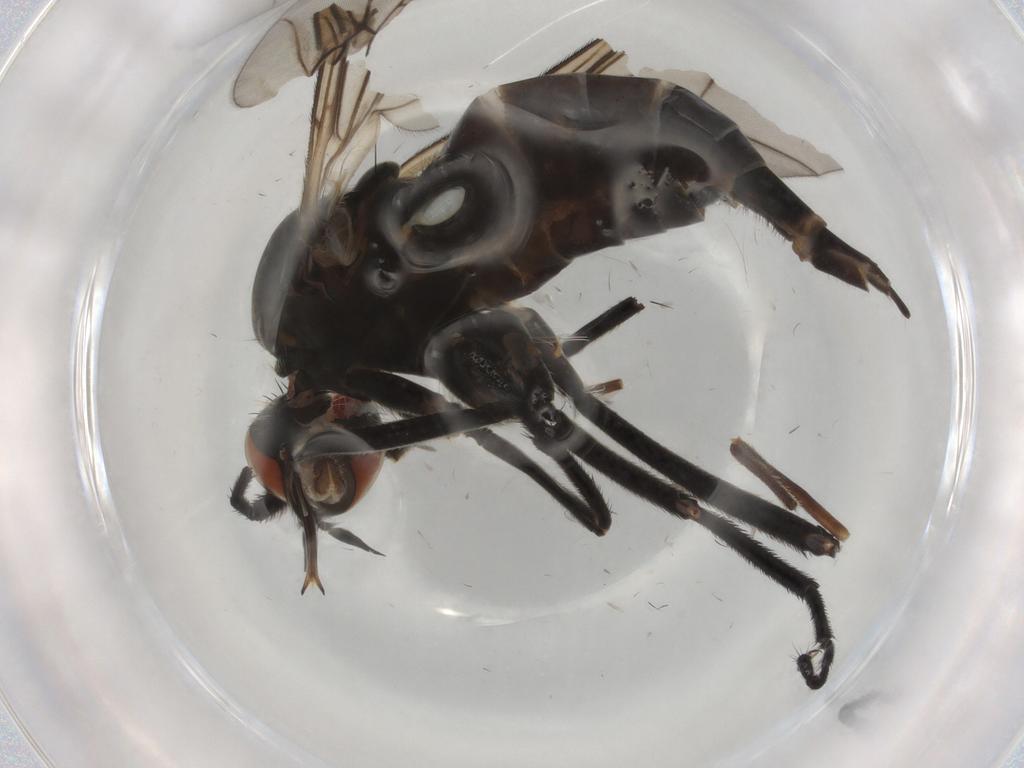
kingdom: Animalia
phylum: Arthropoda
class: Insecta
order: Diptera
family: Empididae
